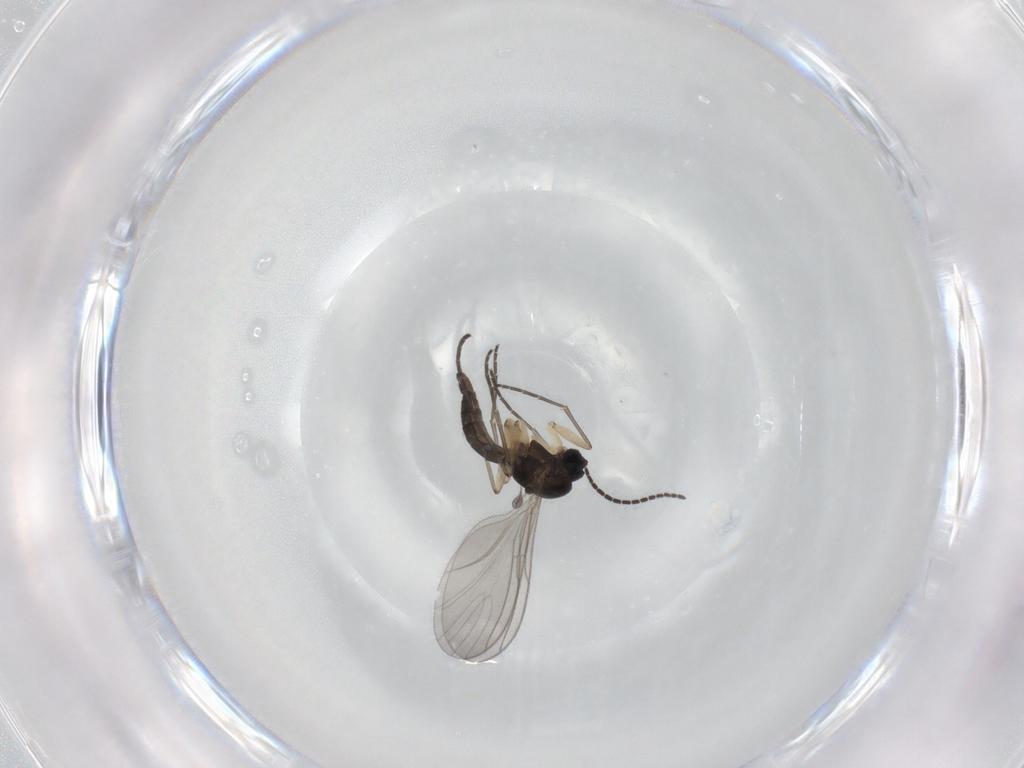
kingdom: Animalia
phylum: Arthropoda
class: Insecta
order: Diptera
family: Sciaridae
